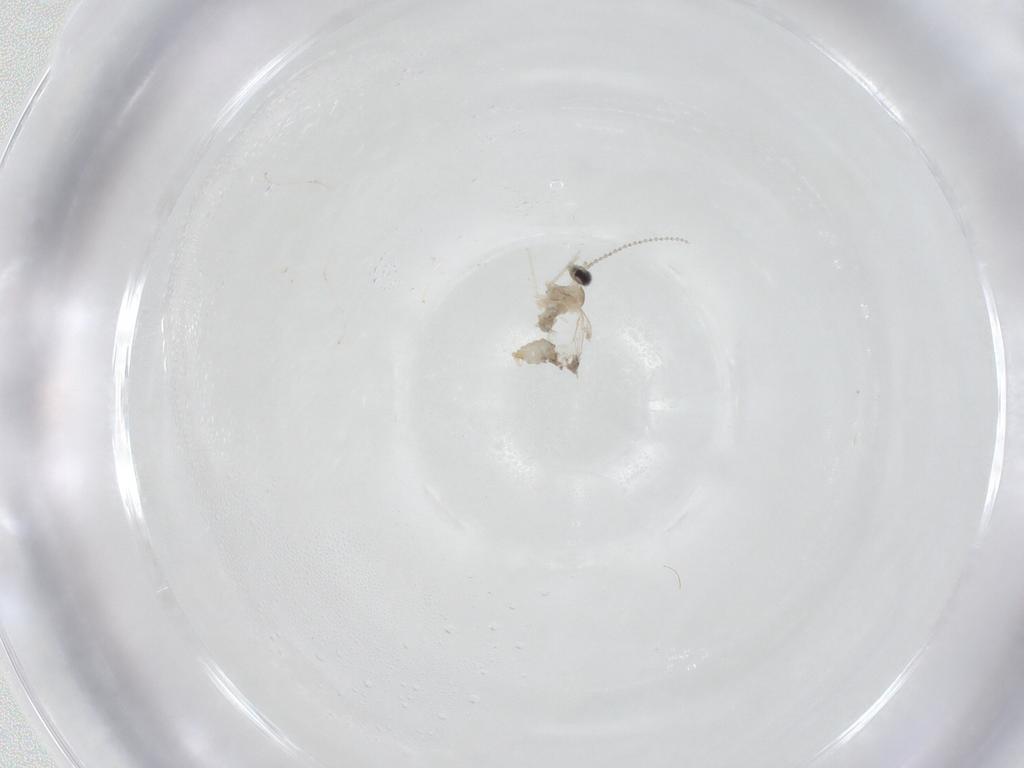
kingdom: Animalia
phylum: Arthropoda
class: Insecta
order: Diptera
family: Cecidomyiidae
